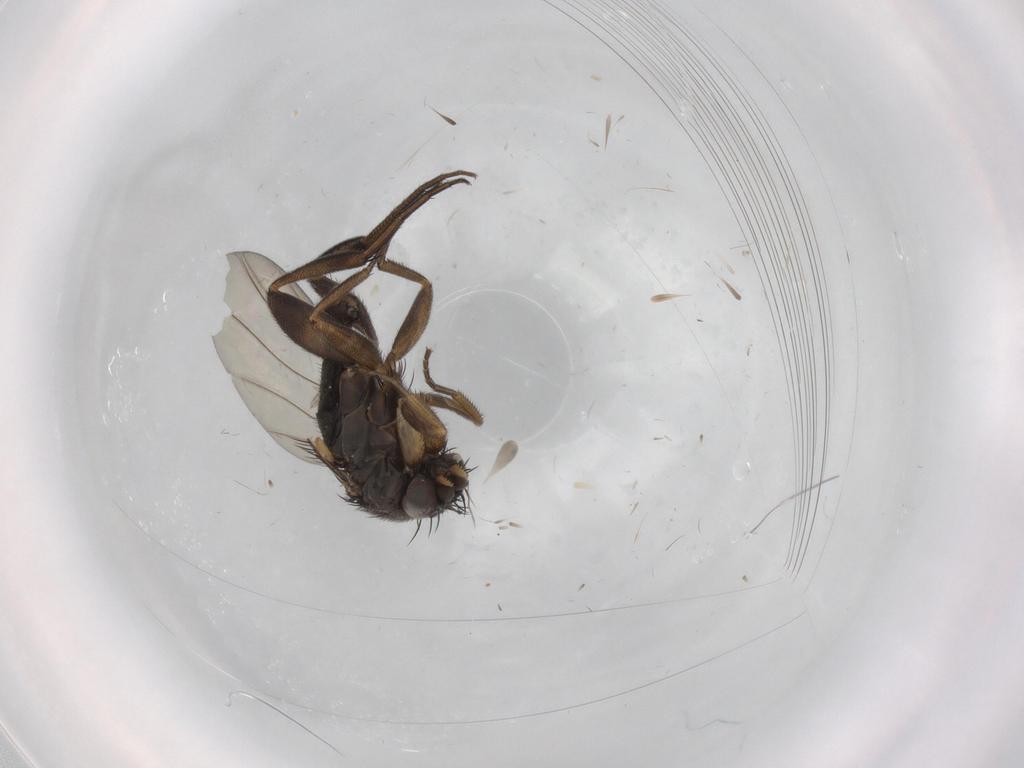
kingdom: Animalia
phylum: Arthropoda
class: Insecta
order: Diptera
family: Phoridae
